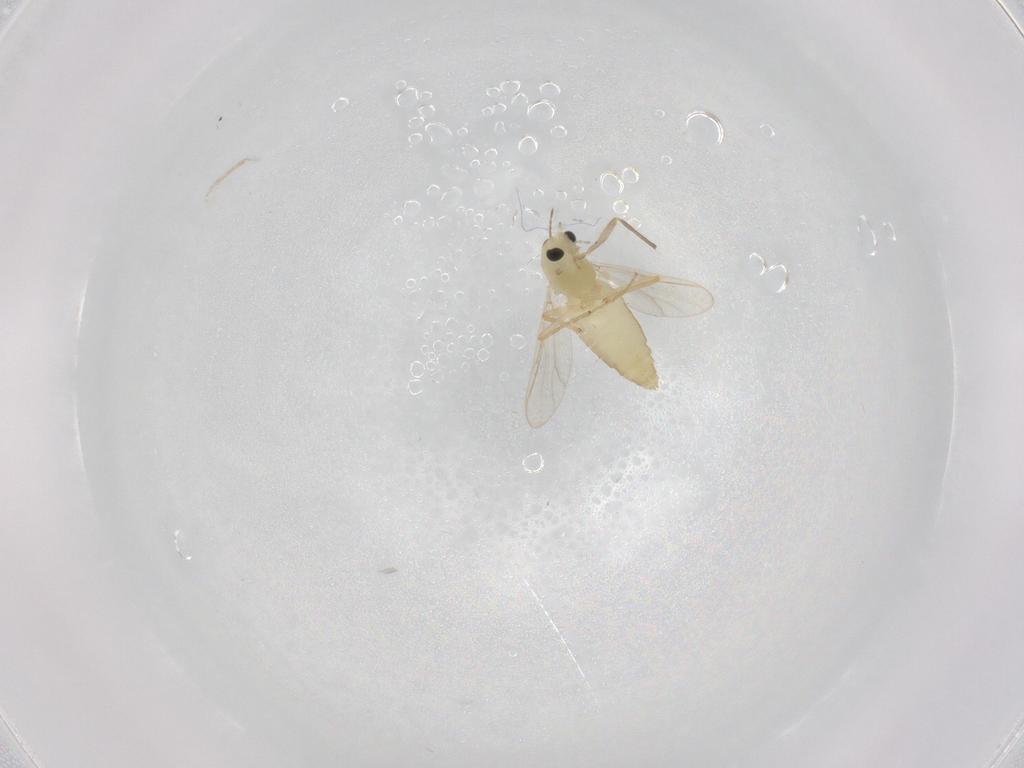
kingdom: Animalia
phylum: Arthropoda
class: Insecta
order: Diptera
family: Chironomidae
